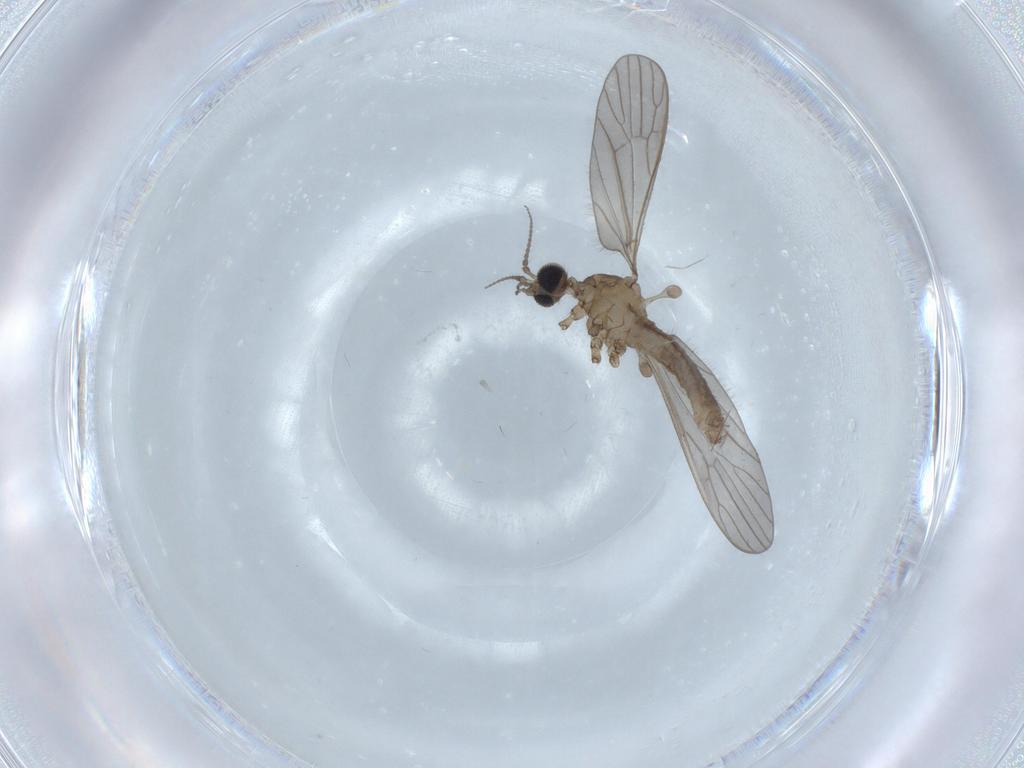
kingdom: Animalia
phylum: Arthropoda
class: Insecta
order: Diptera
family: Limoniidae
